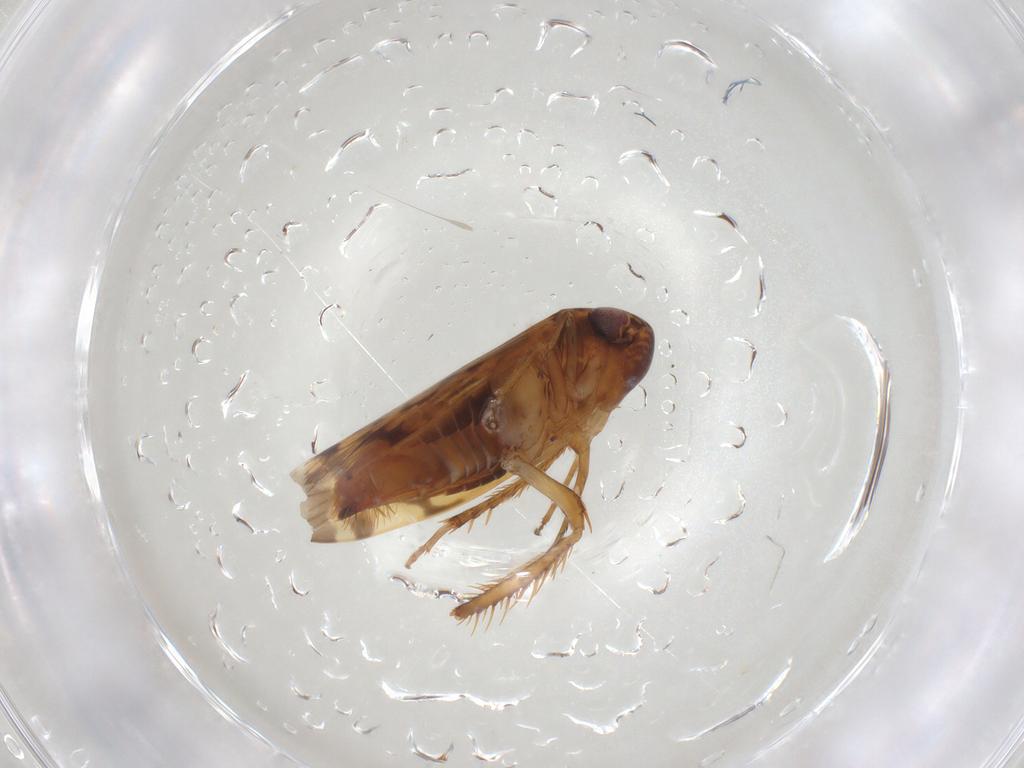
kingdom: Animalia
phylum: Arthropoda
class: Insecta
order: Hemiptera
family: Cicadellidae
